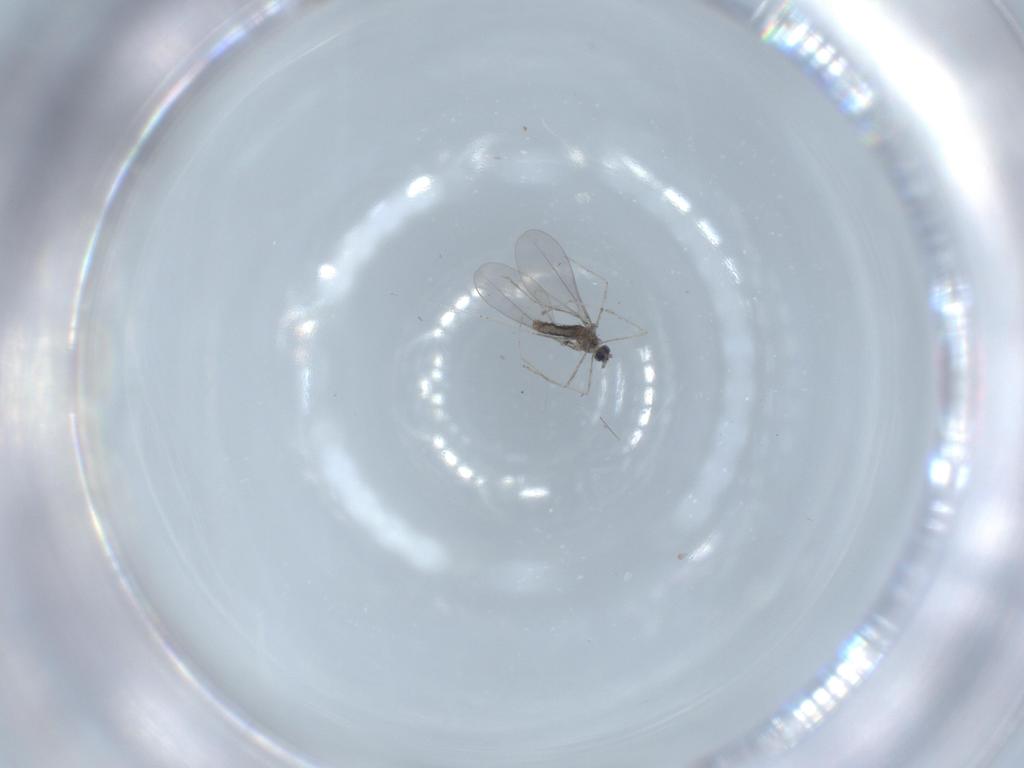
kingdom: Animalia
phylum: Arthropoda
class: Insecta
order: Diptera
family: Cecidomyiidae
